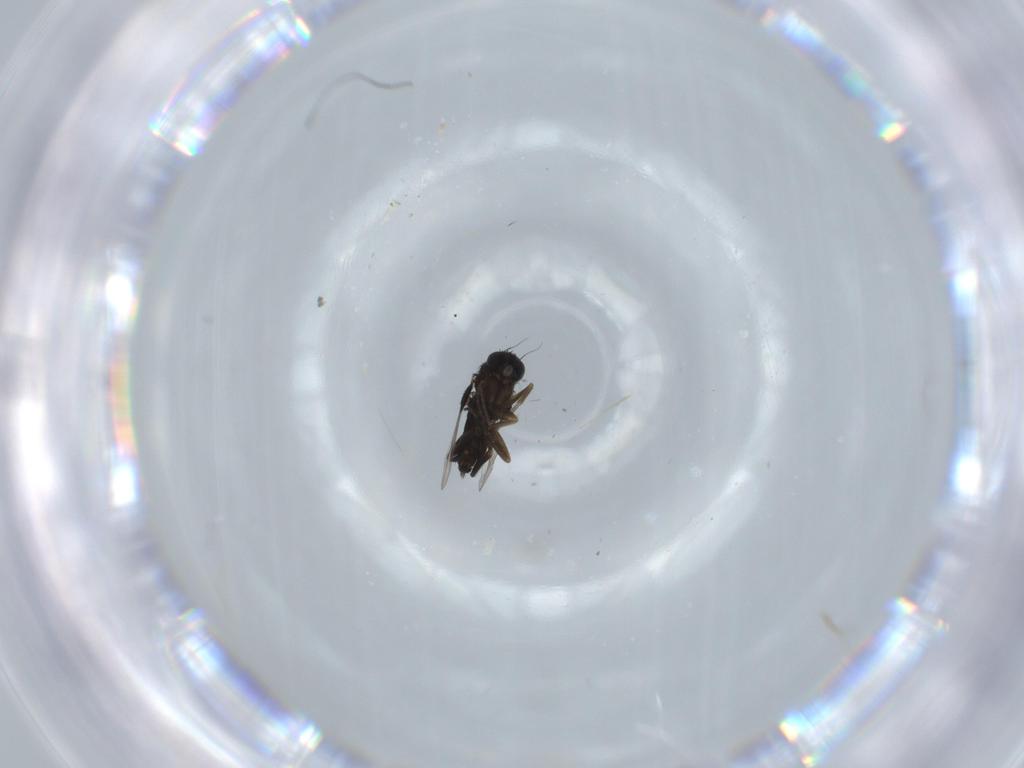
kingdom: Animalia
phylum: Arthropoda
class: Insecta
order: Diptera
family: Phoridae
